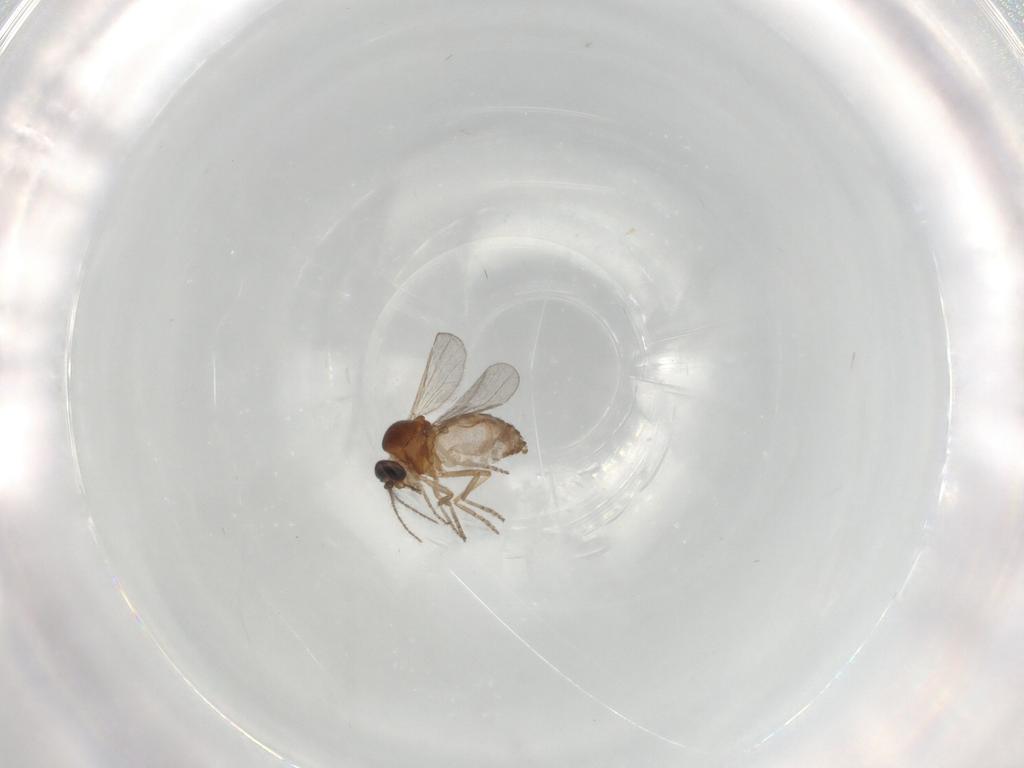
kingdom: Animalia
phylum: Arthropoda
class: Insecta
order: Diptera
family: Ceratopogonidae
